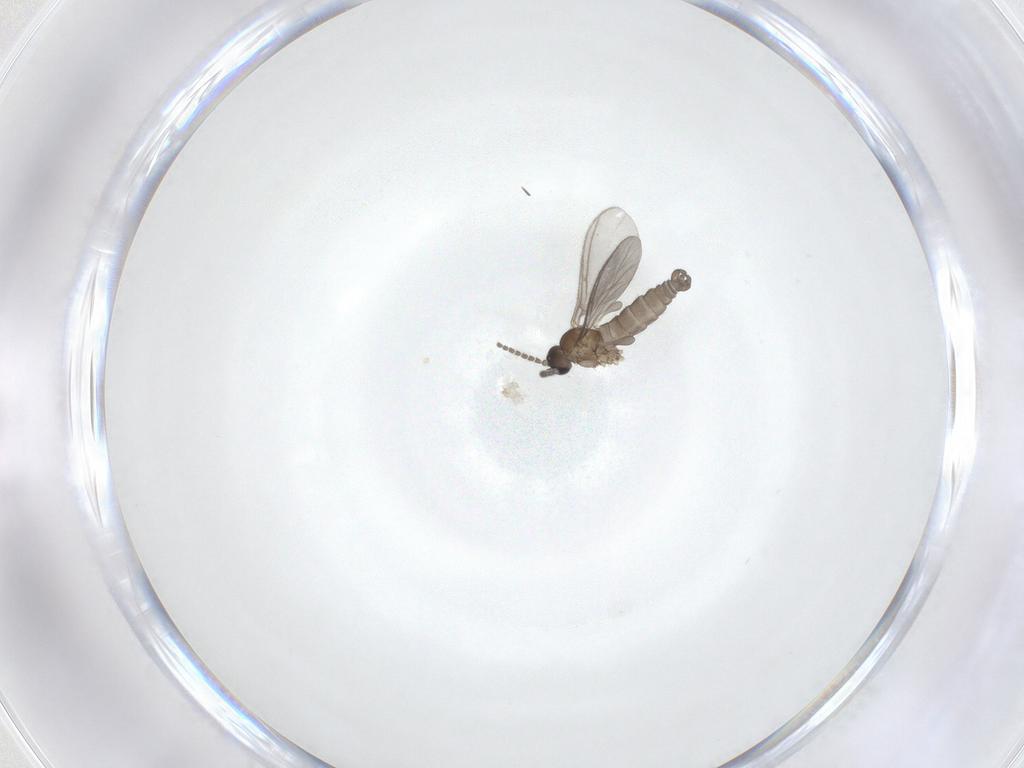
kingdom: Animalia
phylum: Arthropoda
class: Insecta
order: Diptera
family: Sciaridae
